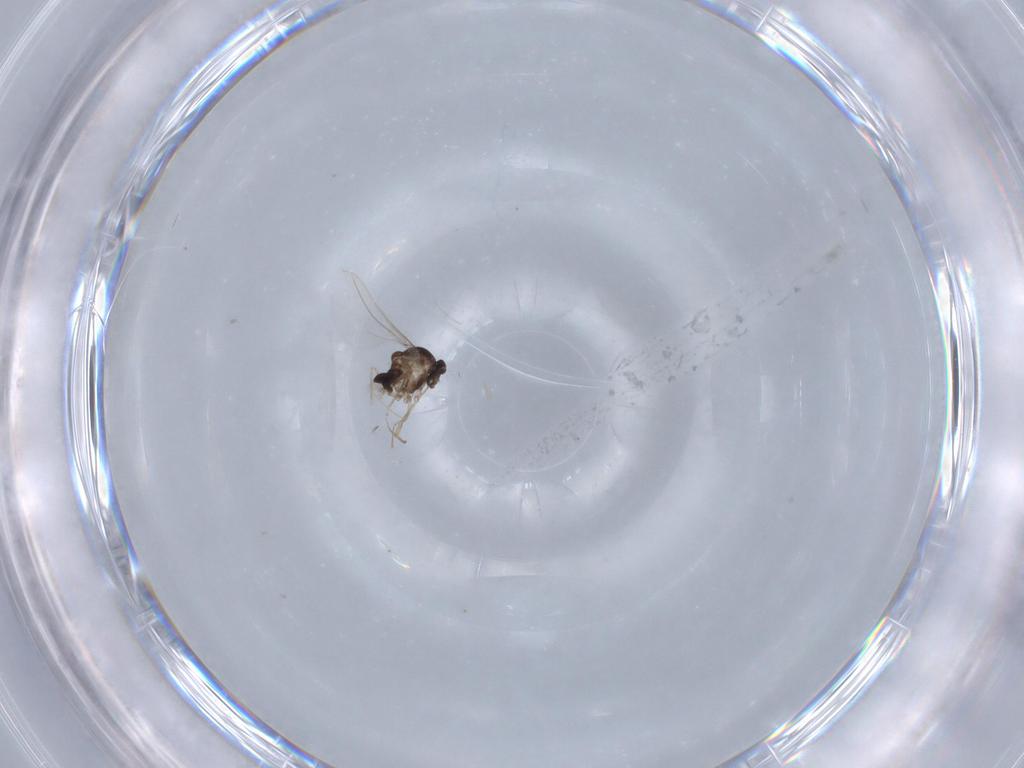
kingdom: Animalia
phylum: Arthropoda
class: Insecta
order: Diptera
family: Cecidomyiidae
